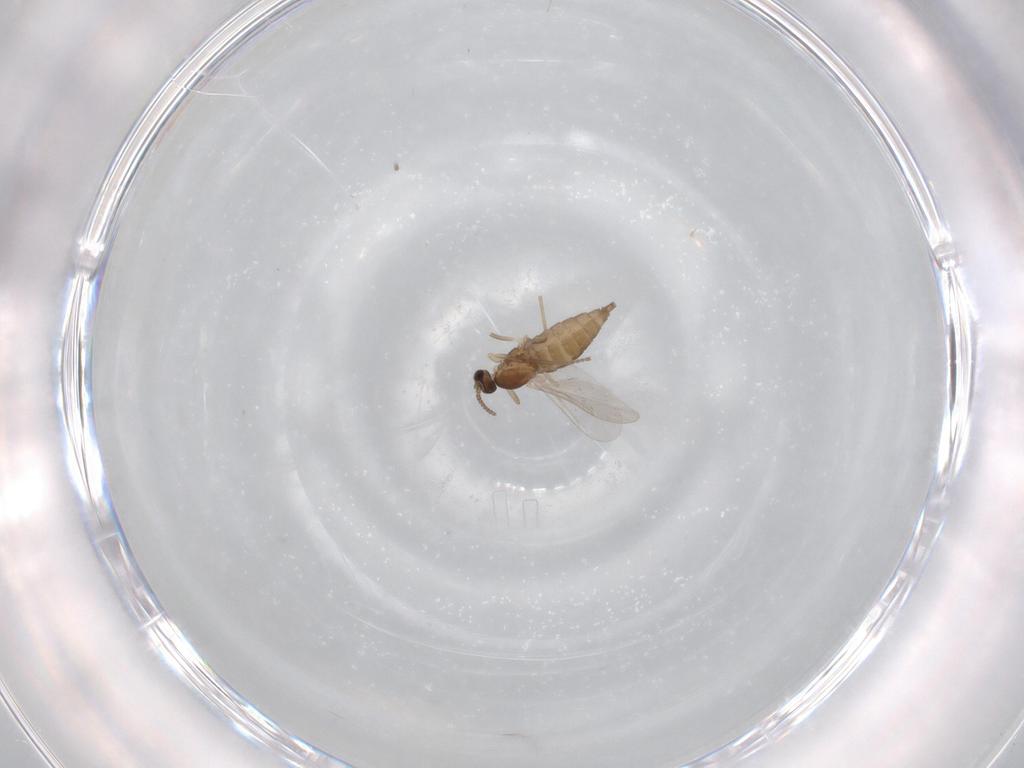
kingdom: Animalia
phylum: Arthropoda
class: Insecta
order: Diptera
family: Cecidomyiidae
